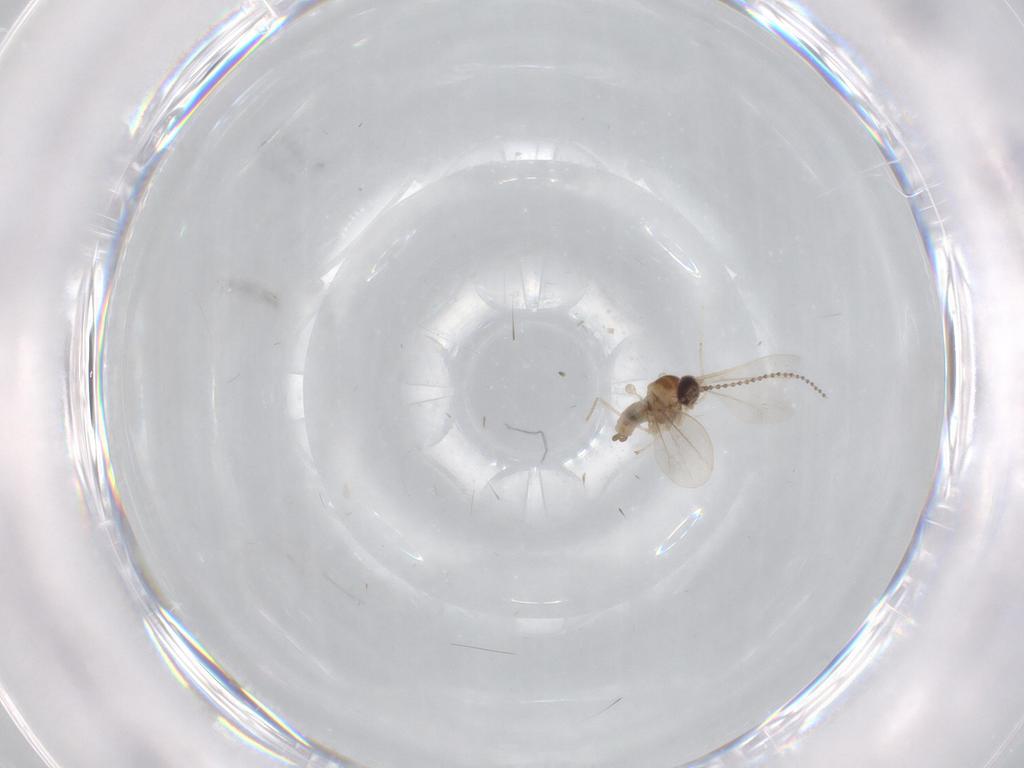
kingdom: Animalia
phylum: Arthropoda
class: Insecta
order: Diptera
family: Cecidomyiidae
